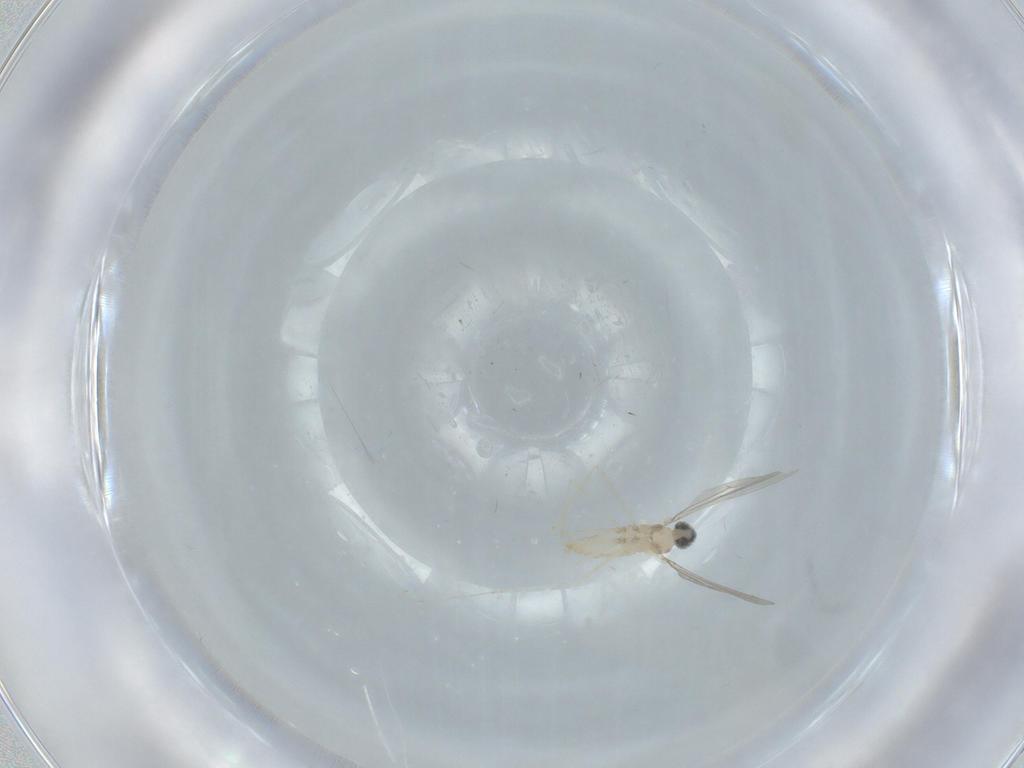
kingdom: Animalia
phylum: Arthropoda
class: Insecta
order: Diptera
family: Cecidomyiidae
